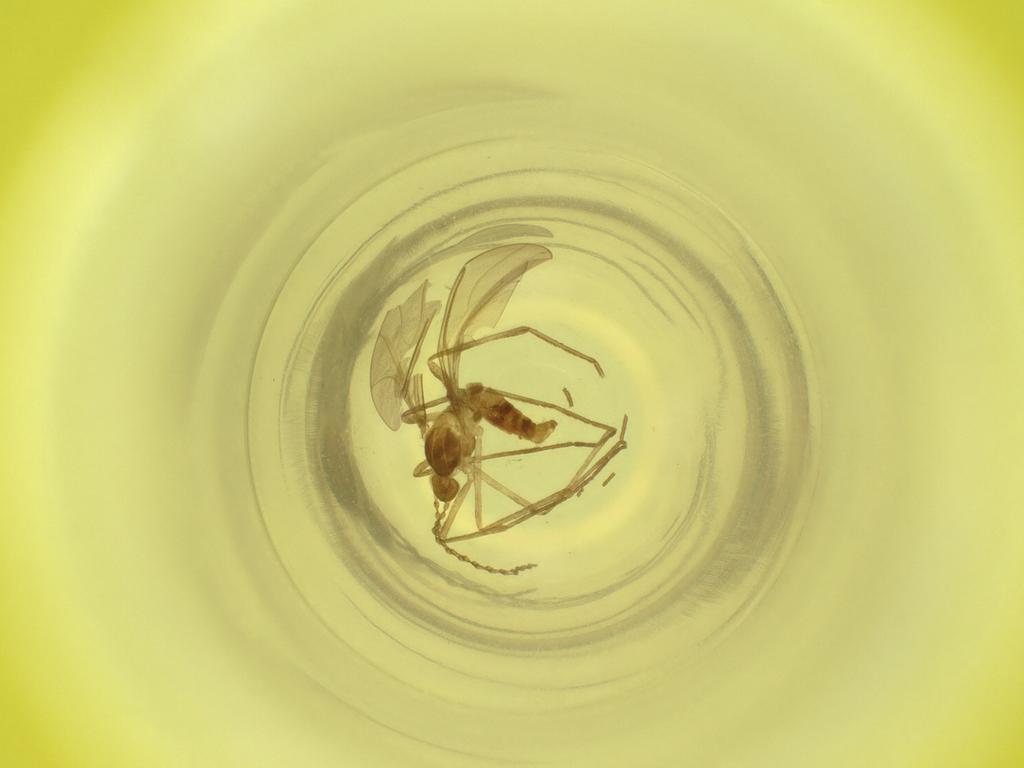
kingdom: Animalia
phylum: Arthropoda
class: Insecta
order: Diptera
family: Cecidomyiidae
